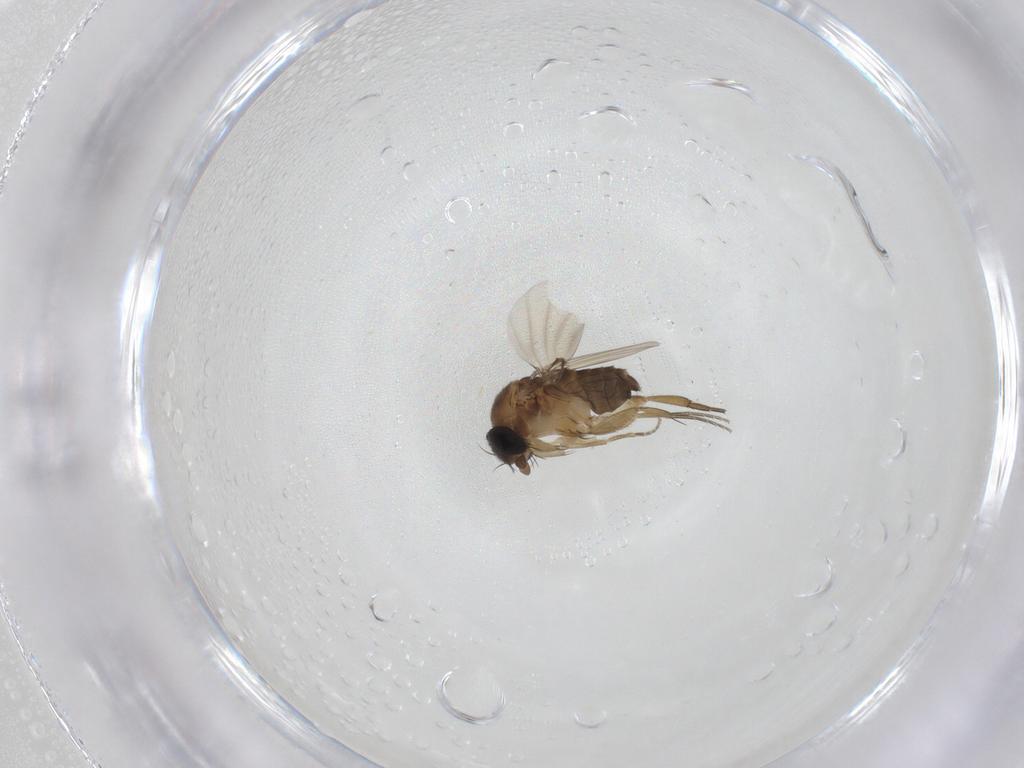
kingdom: Animalia
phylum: Arthropoda
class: Insecta
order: Diptera
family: Phoridae
